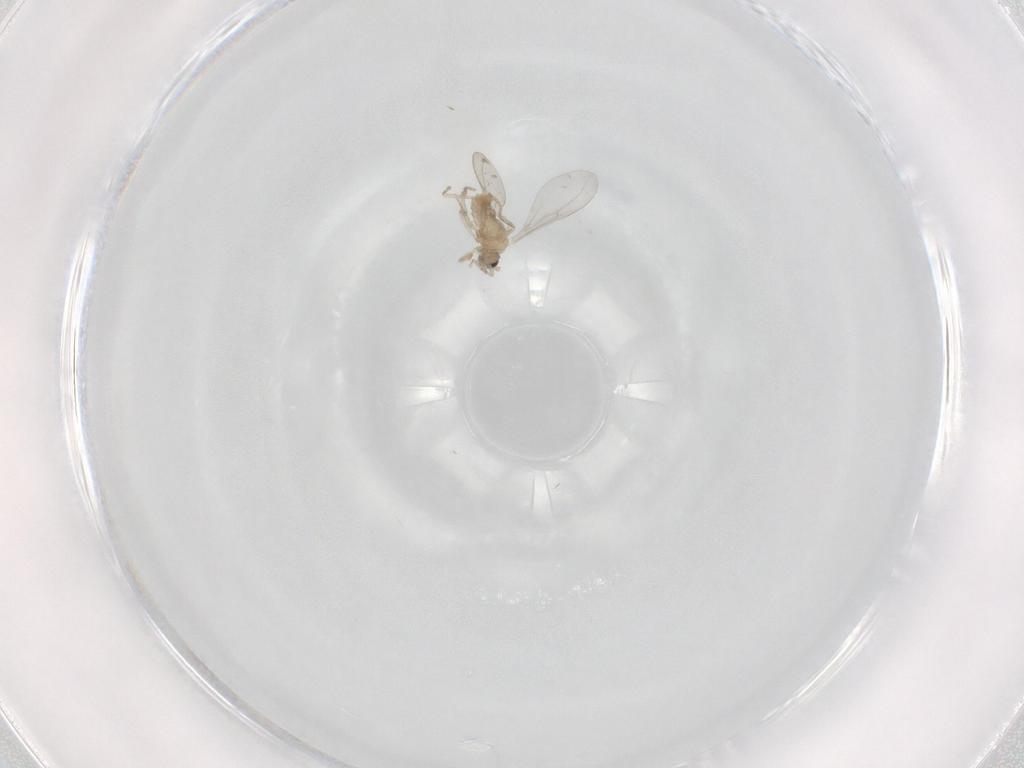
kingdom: Animalia
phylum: Arthropoda
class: Insecta
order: Diptera
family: Cecidomyiidae
